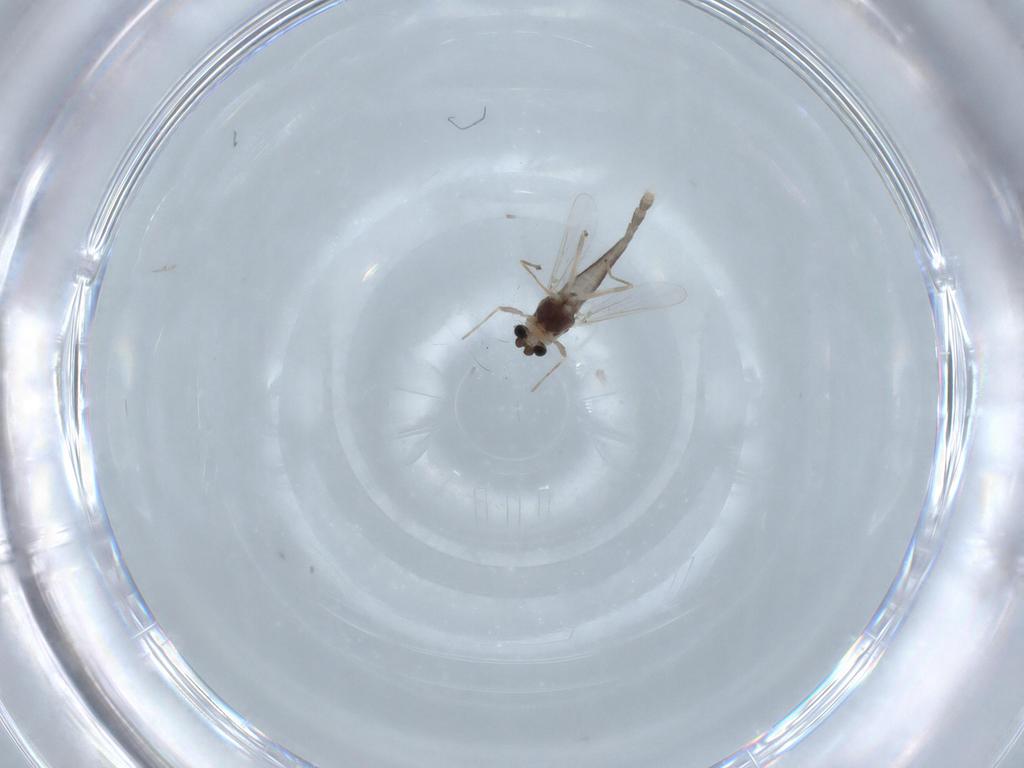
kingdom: Animalia
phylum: Arthropoda
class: Insecta
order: Diptera
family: Chironomidae
